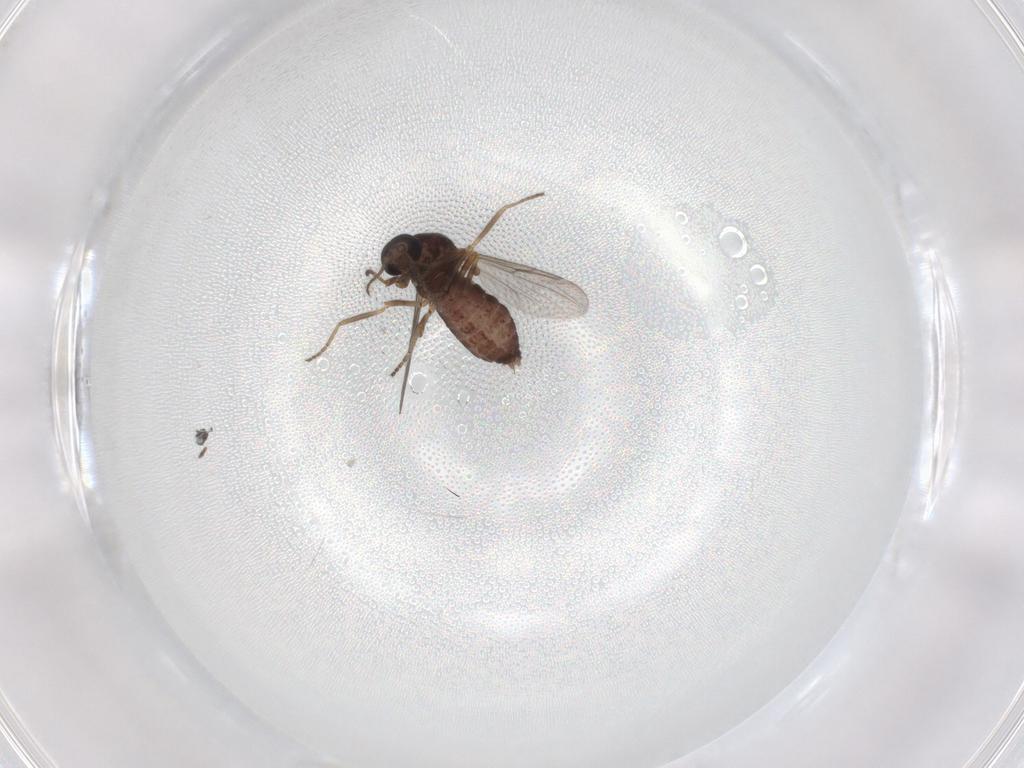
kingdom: Animalia
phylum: Arthropoda
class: Insecta
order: Diptera
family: Ceratopogonidae
